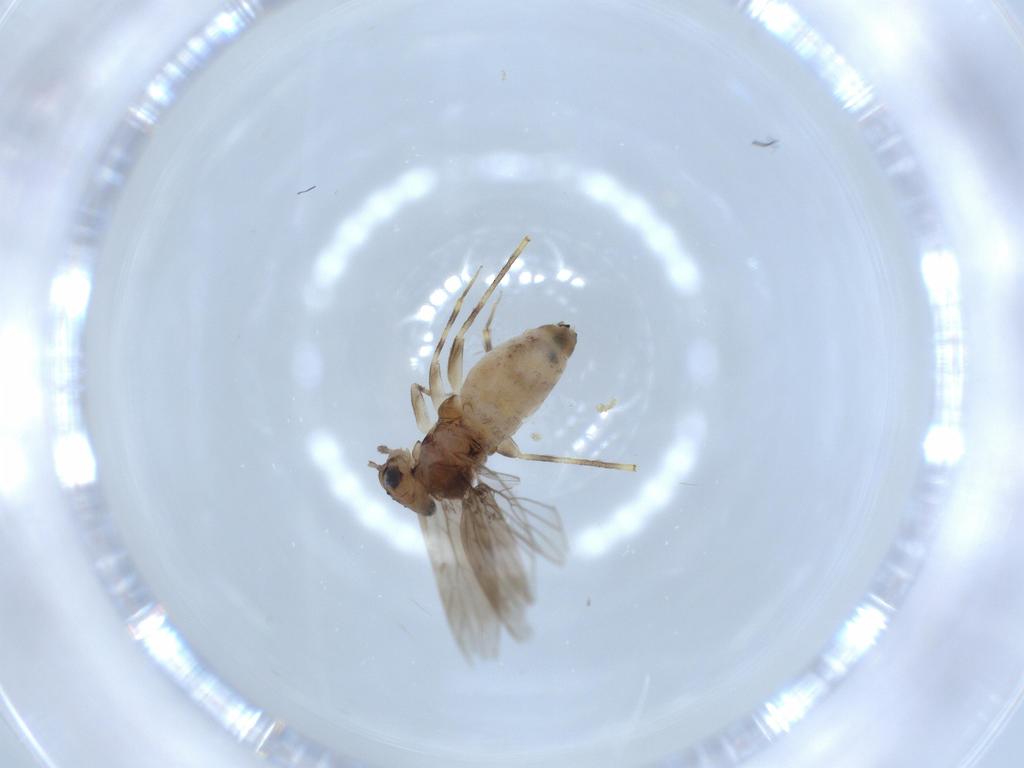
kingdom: Animalia
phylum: Arthropoda
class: Insecta
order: Psocodea
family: Lepidopsocidae
